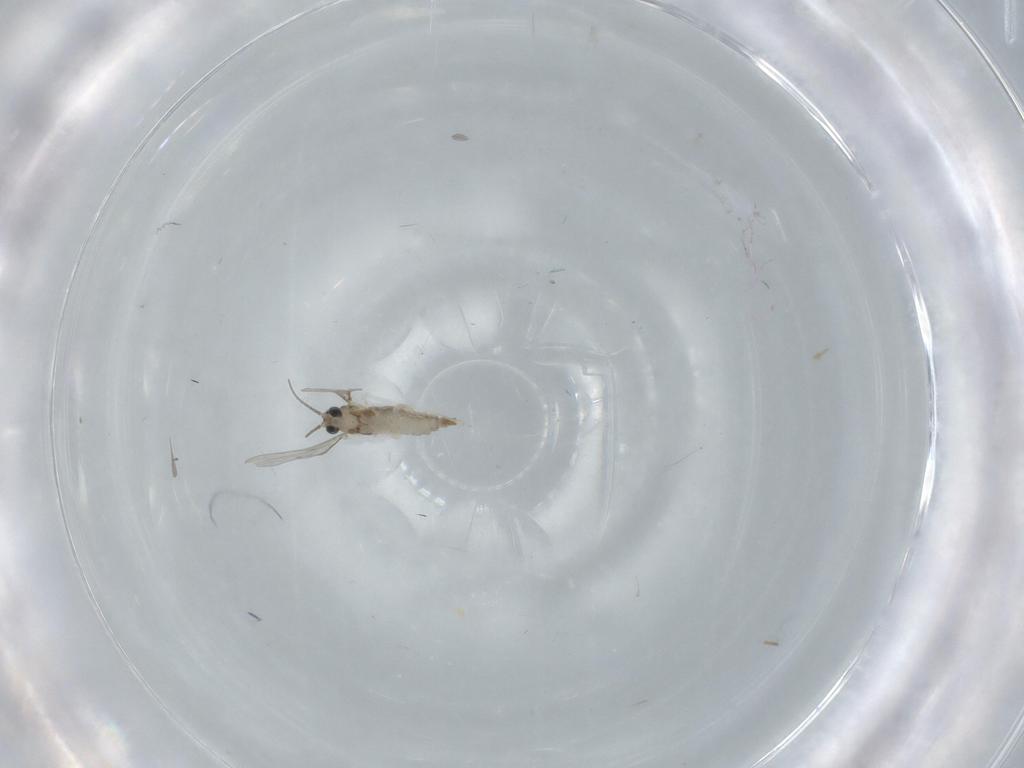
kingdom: Animalia
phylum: Arthropoda
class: Insecta
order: Diptera
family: Cecidomyiidae
